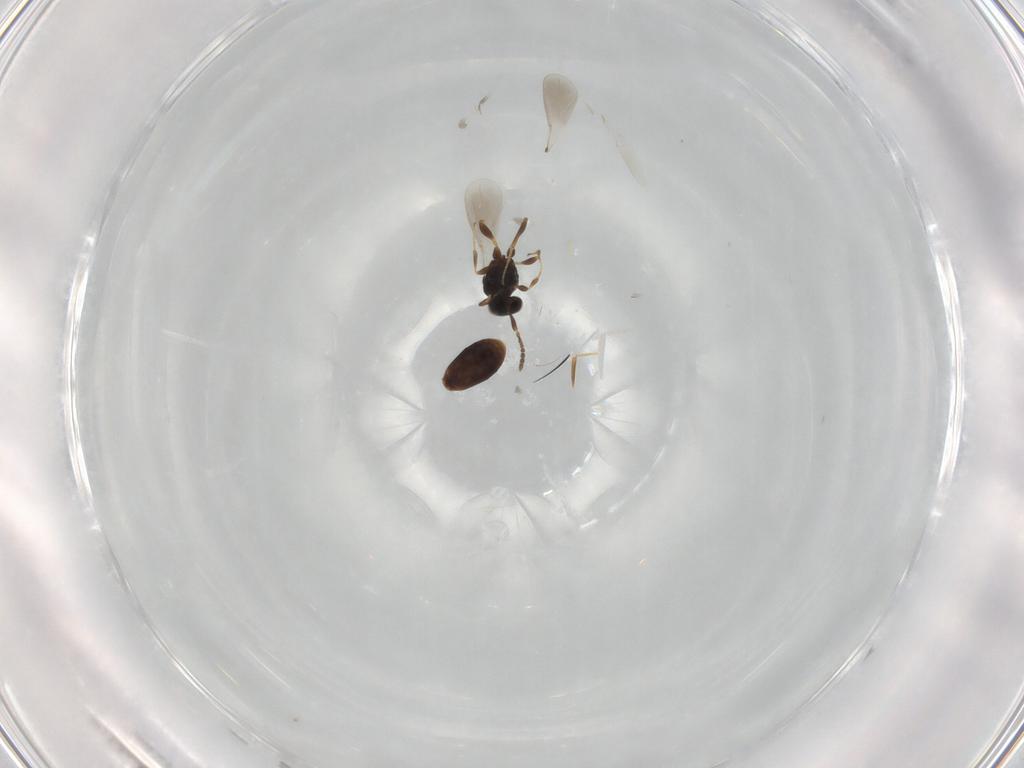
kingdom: Animalia
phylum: Arthropoda
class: Insecta
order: Hymenoptera
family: Platygastridae
